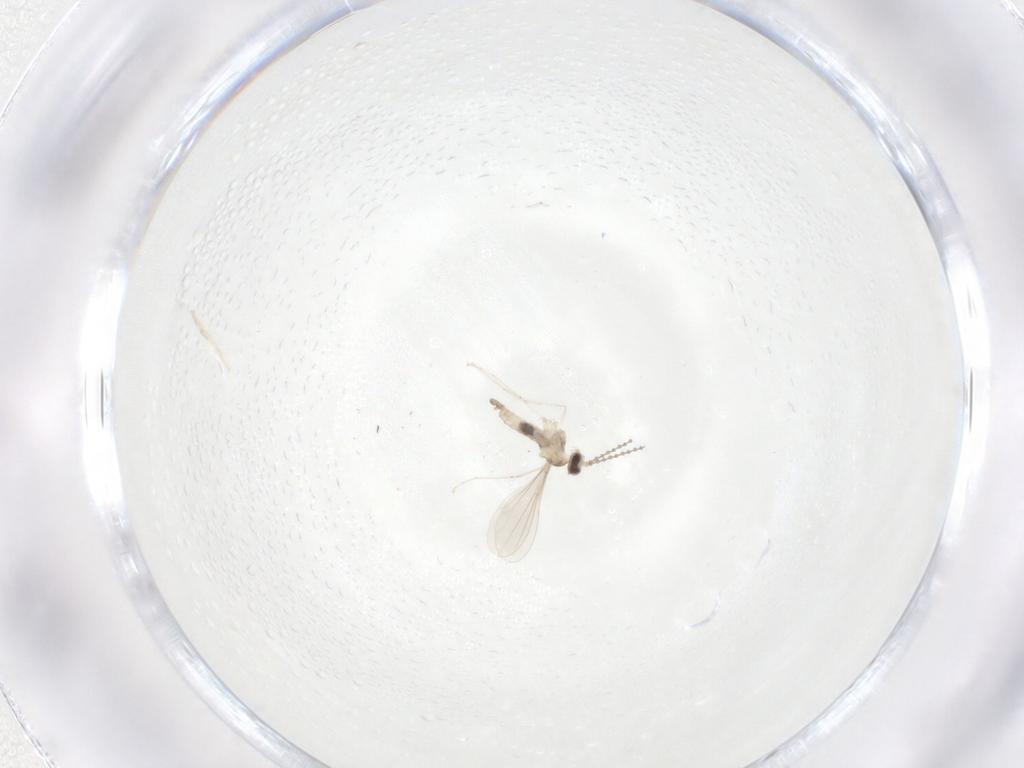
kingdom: Animalia
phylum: Arthropoda
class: Insecta
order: Diptera
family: Cecidomyiidae
